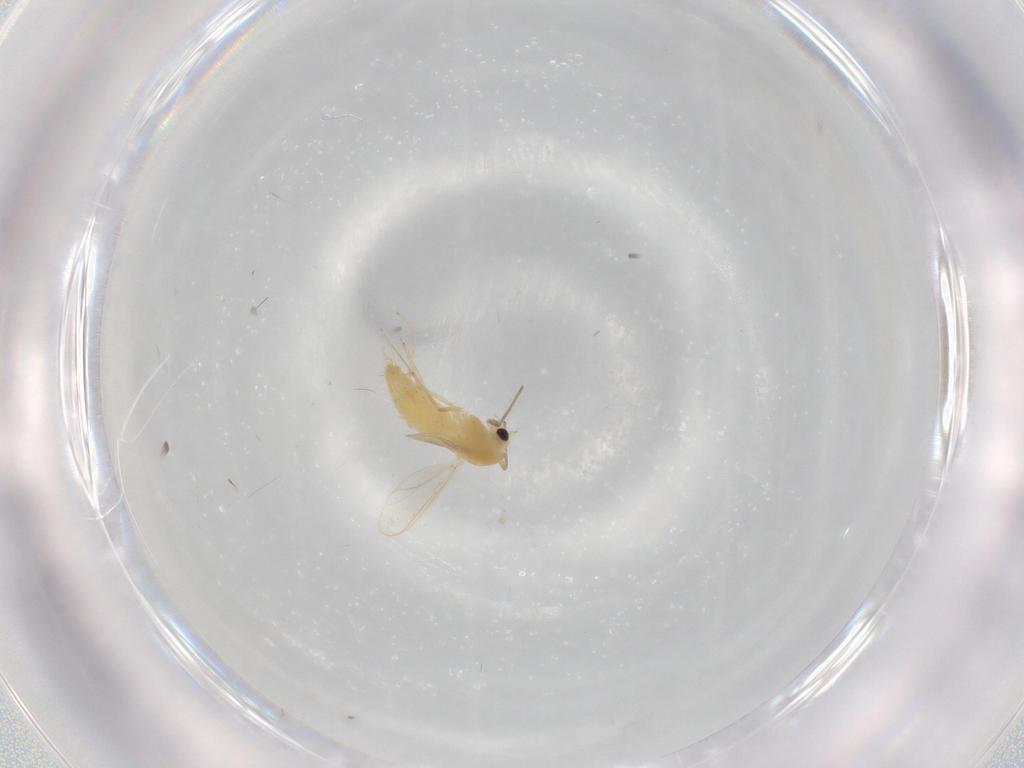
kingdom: Animalia
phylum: Arthropoda
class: Insecta
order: Diptera
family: Chironomidae
